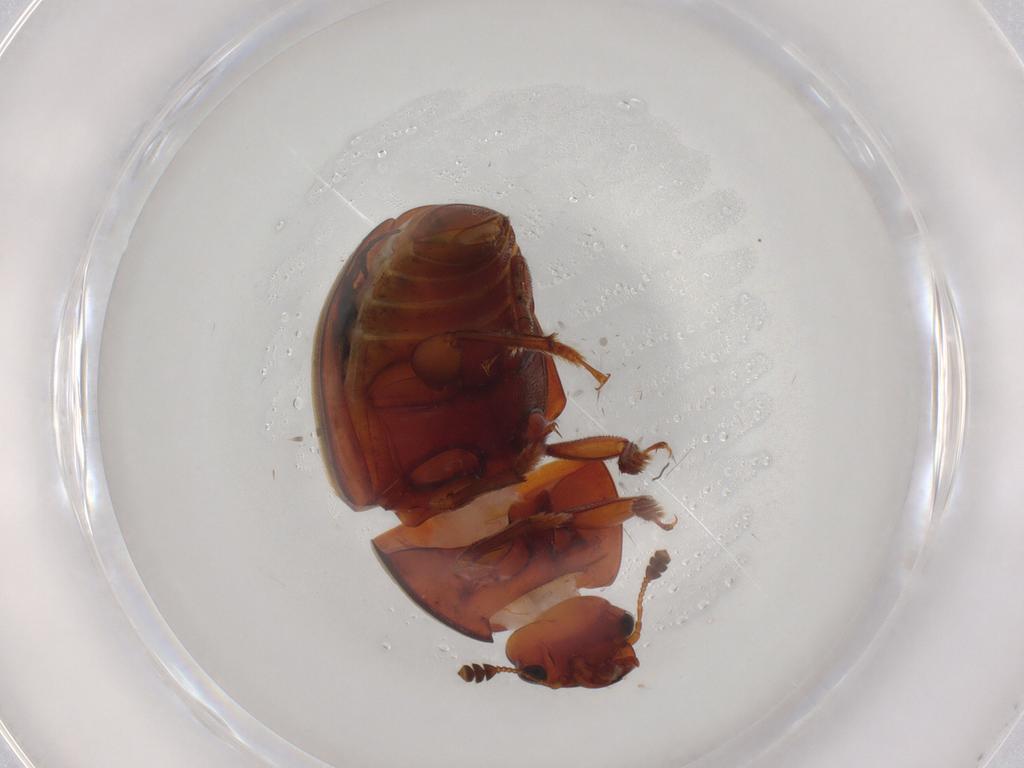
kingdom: Animalia
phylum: Arthropoda
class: Insecta
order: Coleoptera
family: Nitidulidae
